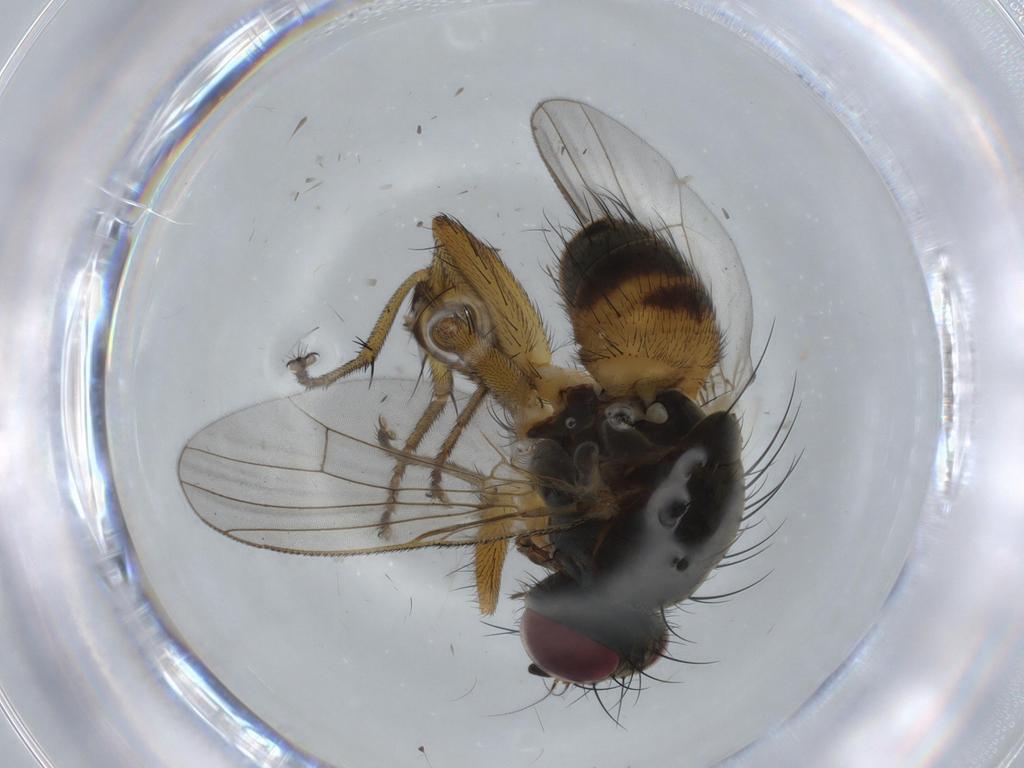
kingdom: Animalia
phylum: Arthropoda
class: Insecta
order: Diptera
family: Muscidae
